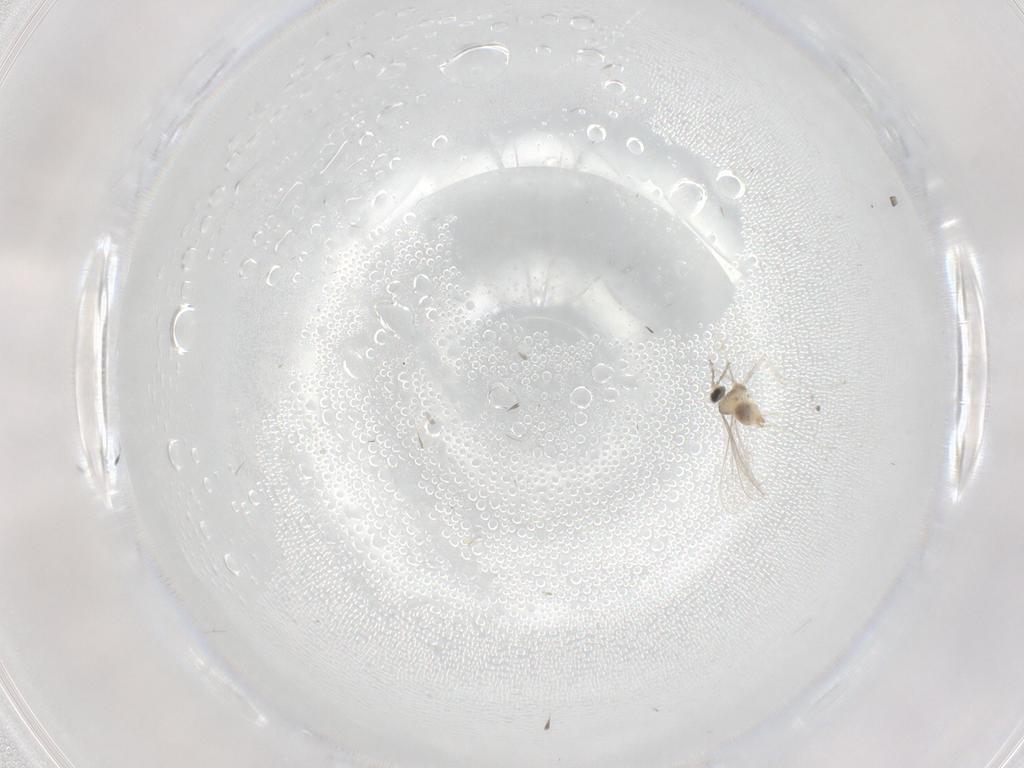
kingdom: Animalia
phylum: Arthropoda
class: Insecta
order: Diptera
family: Cecidomyiidae
